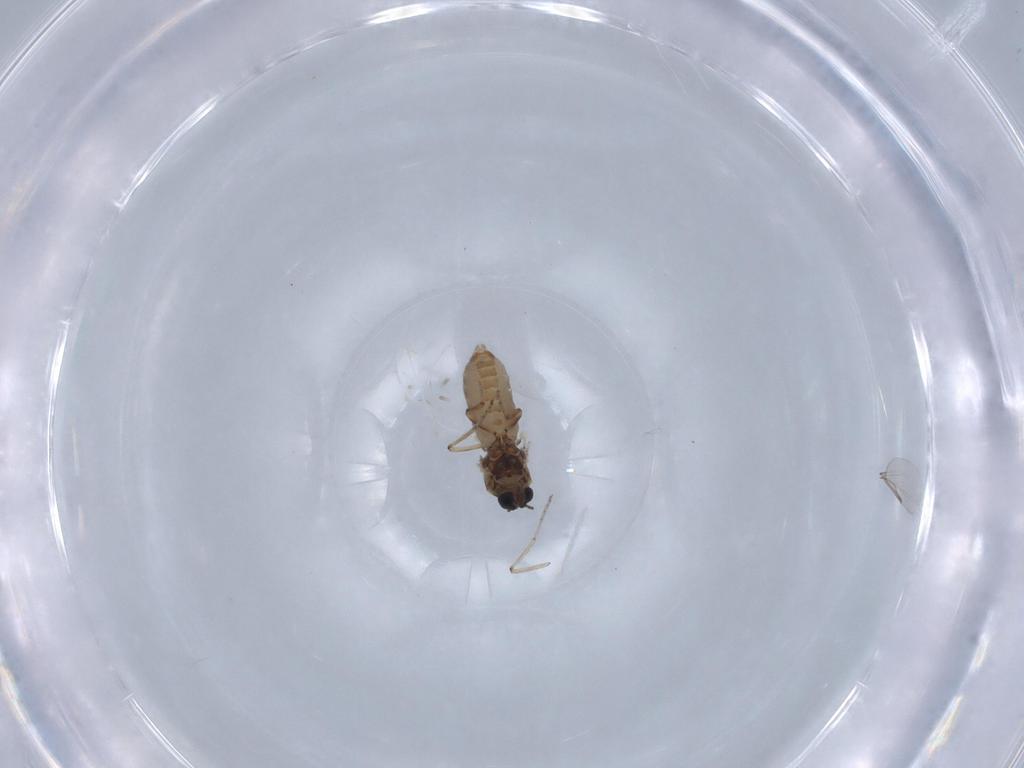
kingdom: Animalia
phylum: Arthropoda
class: Insecta
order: Diptera
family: Ceratopogonidae
